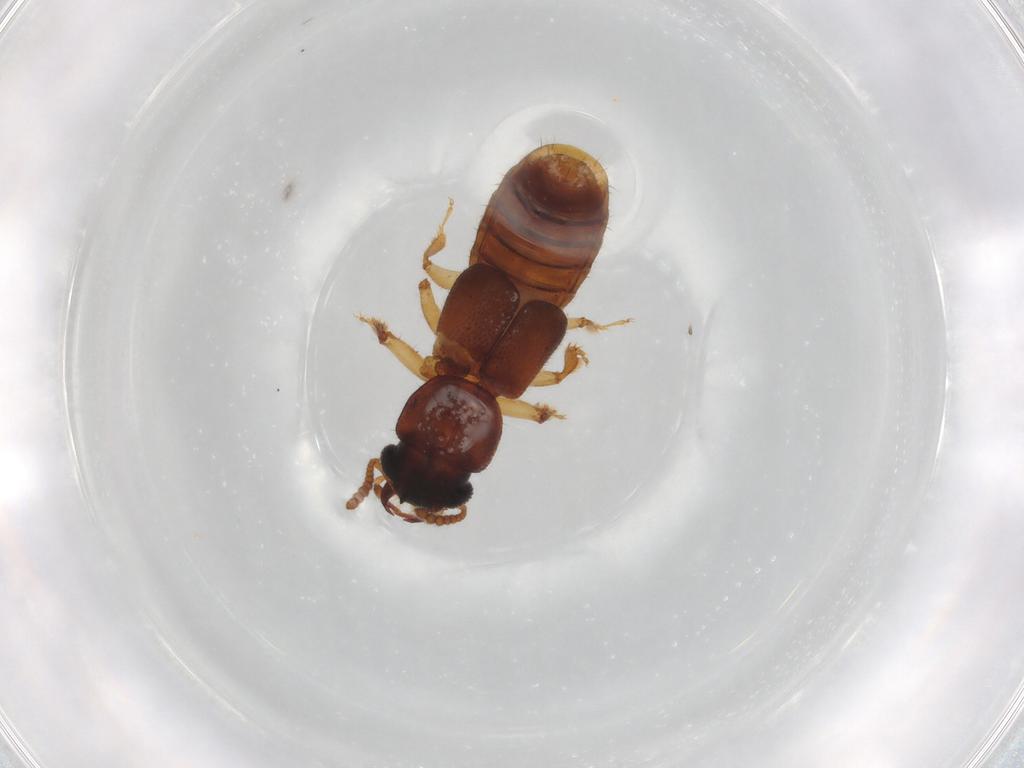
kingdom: Animalia
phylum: Arthropoda
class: Insecta
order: Coleoptera
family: Staphylinidae
